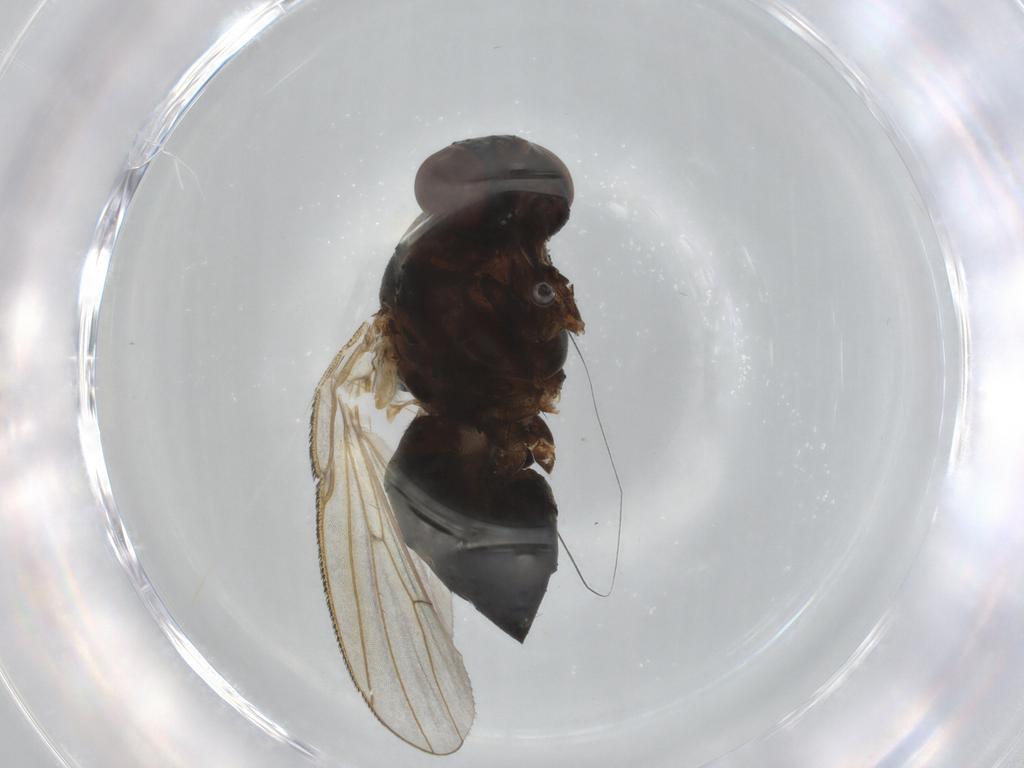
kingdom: Animalia
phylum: Arthropoda
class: Insecta
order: Diptera
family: Muscidae
